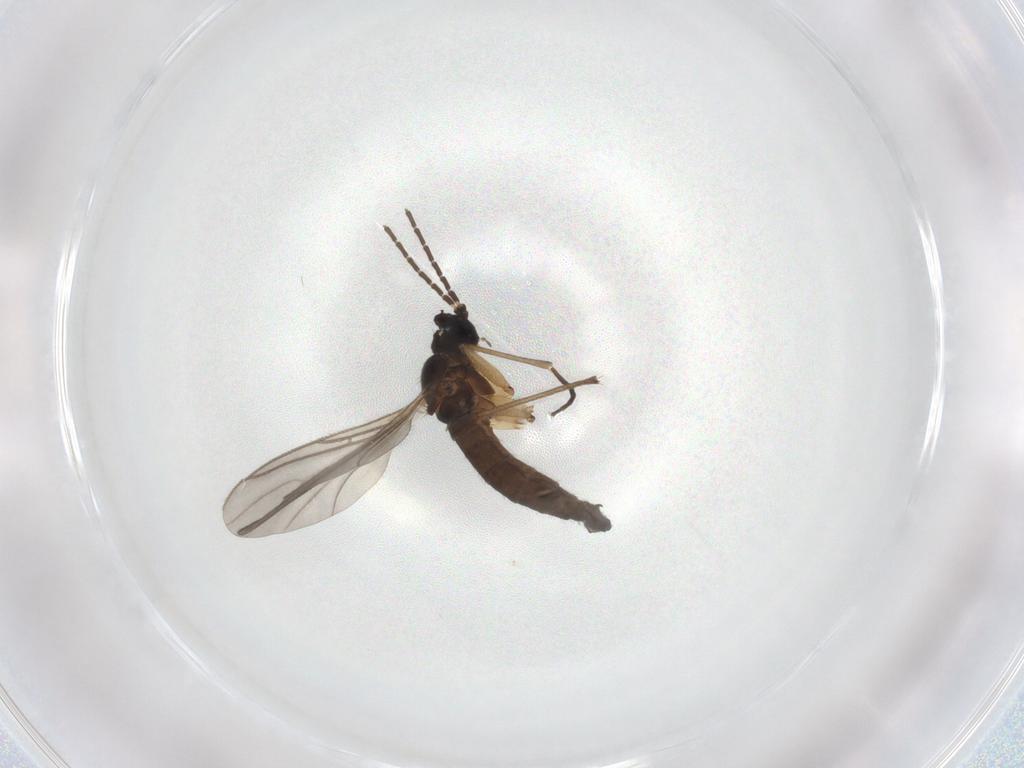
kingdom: Animalia
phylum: Arthropoda
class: Insecta
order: Diptera
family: Sciaridae
